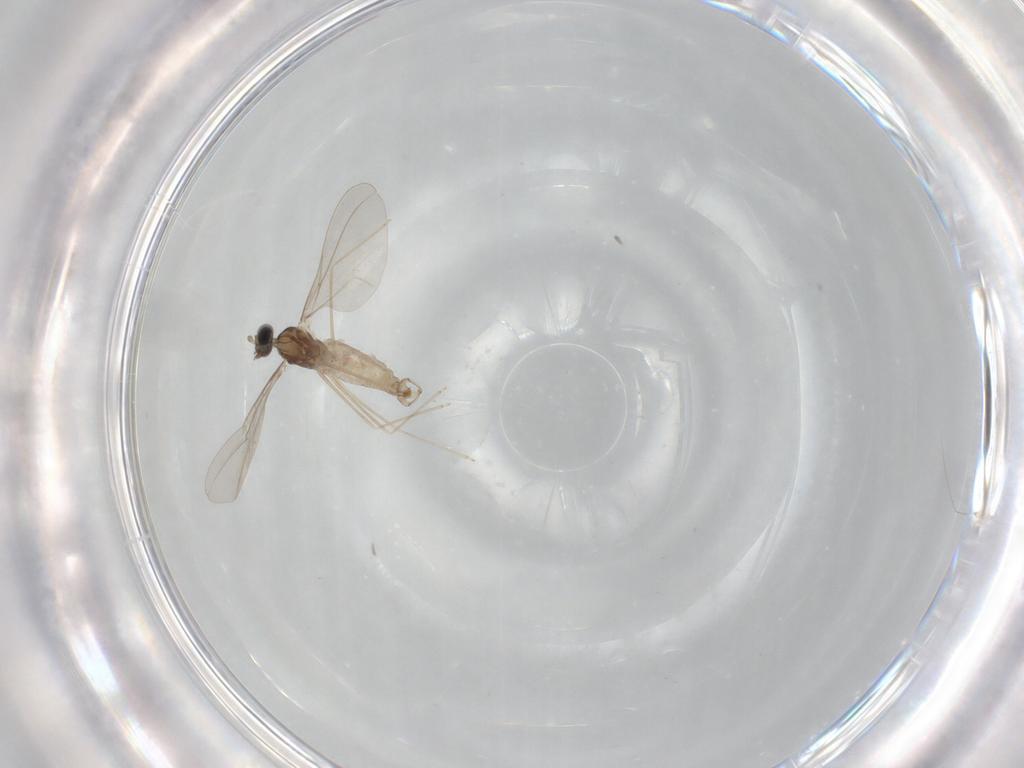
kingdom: Animalia
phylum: Arthropoda
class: Insecta
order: Diptera
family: Cecidomyiidae
